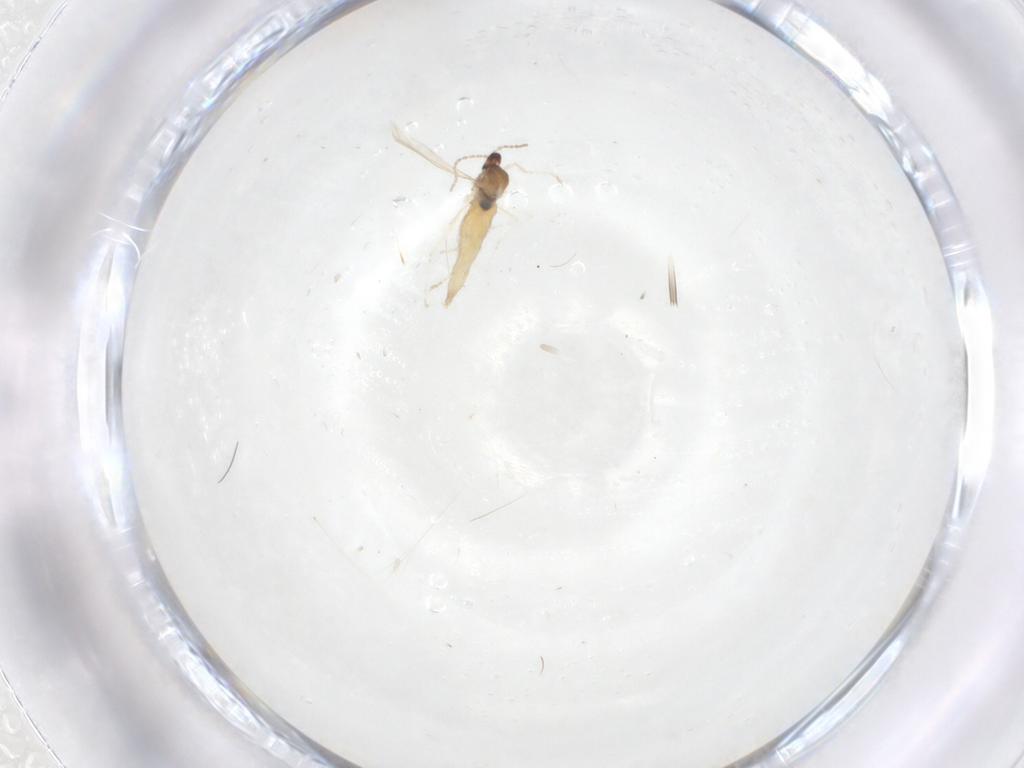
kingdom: Animalia
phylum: Arthropoda
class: Insecta
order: Diptera
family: Cecidomyiidae
